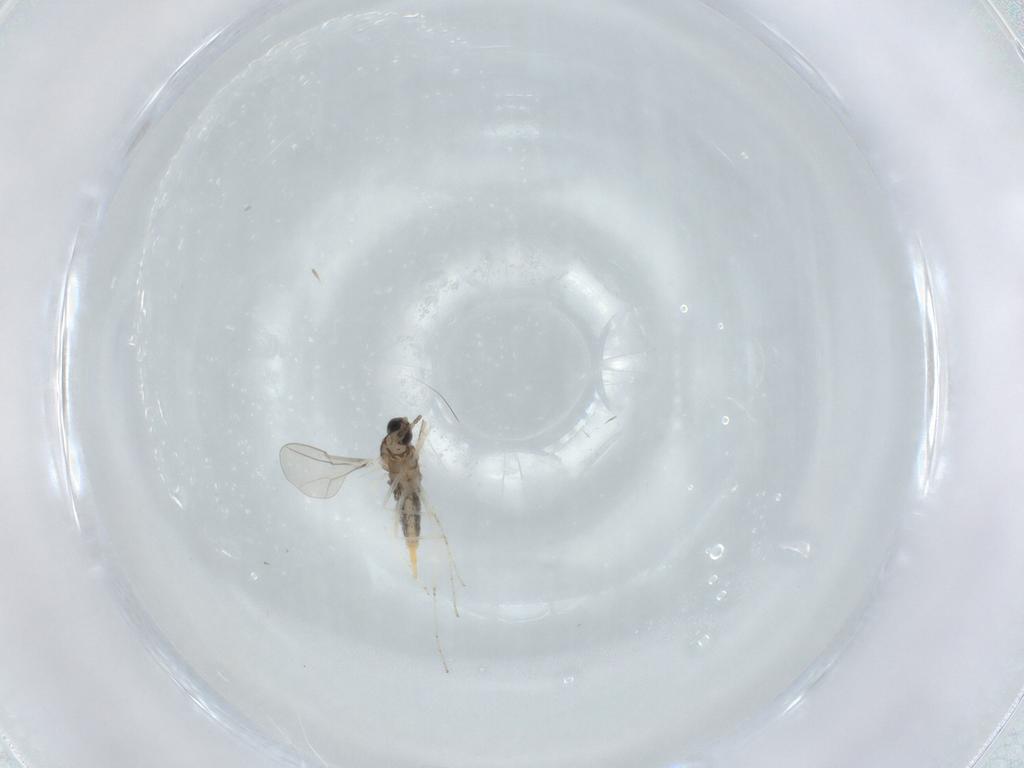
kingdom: Animalia
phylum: Arthropoda
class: Insecta
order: Diptera
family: Cecidomyiidae
